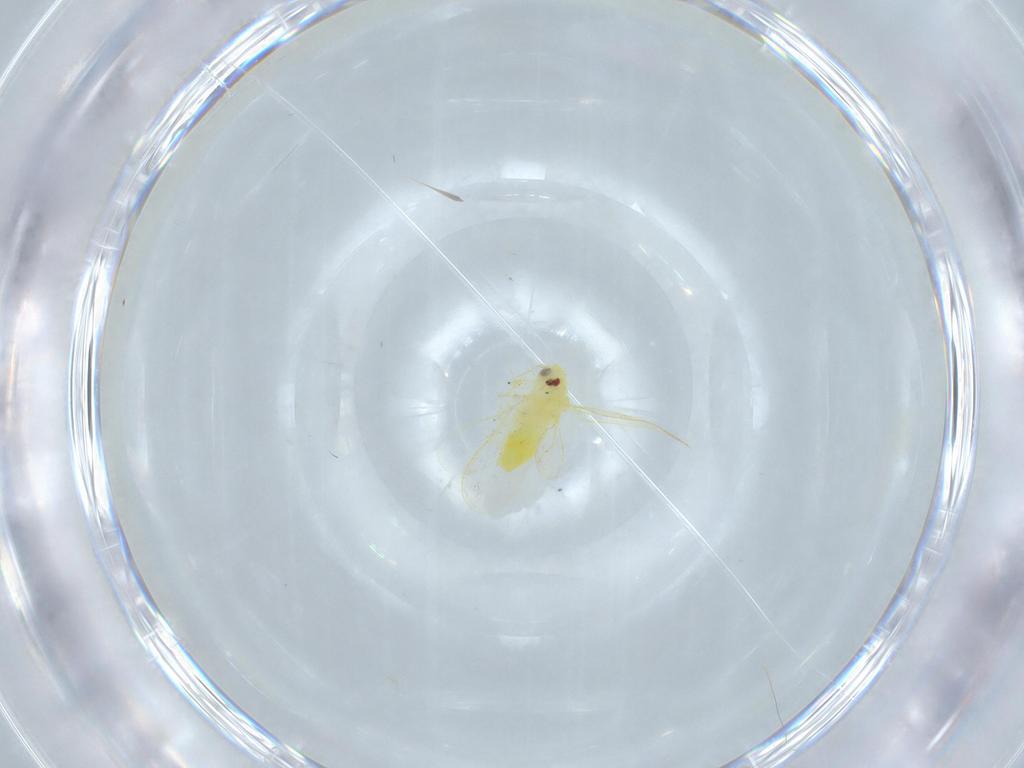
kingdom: Animalia
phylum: Arthropoda
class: Insecta
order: Hemiptera
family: Aleyrodidae
